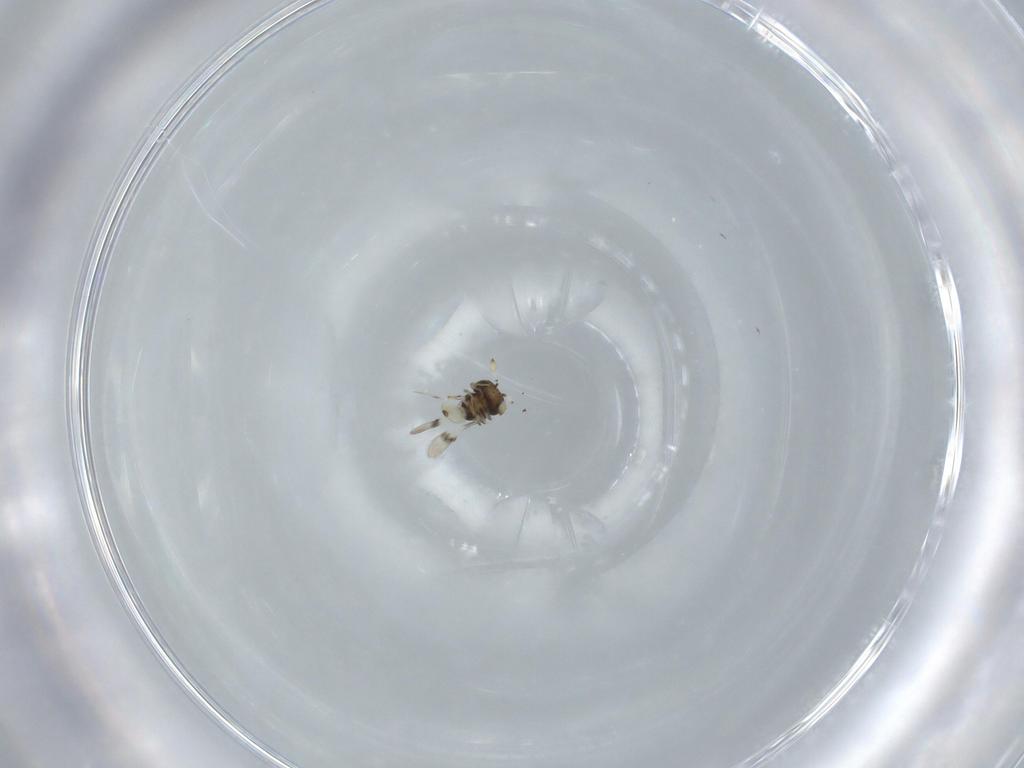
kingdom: Animalia
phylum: Arthropoda
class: Insecta
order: Hymenoptera
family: Scelionidae
